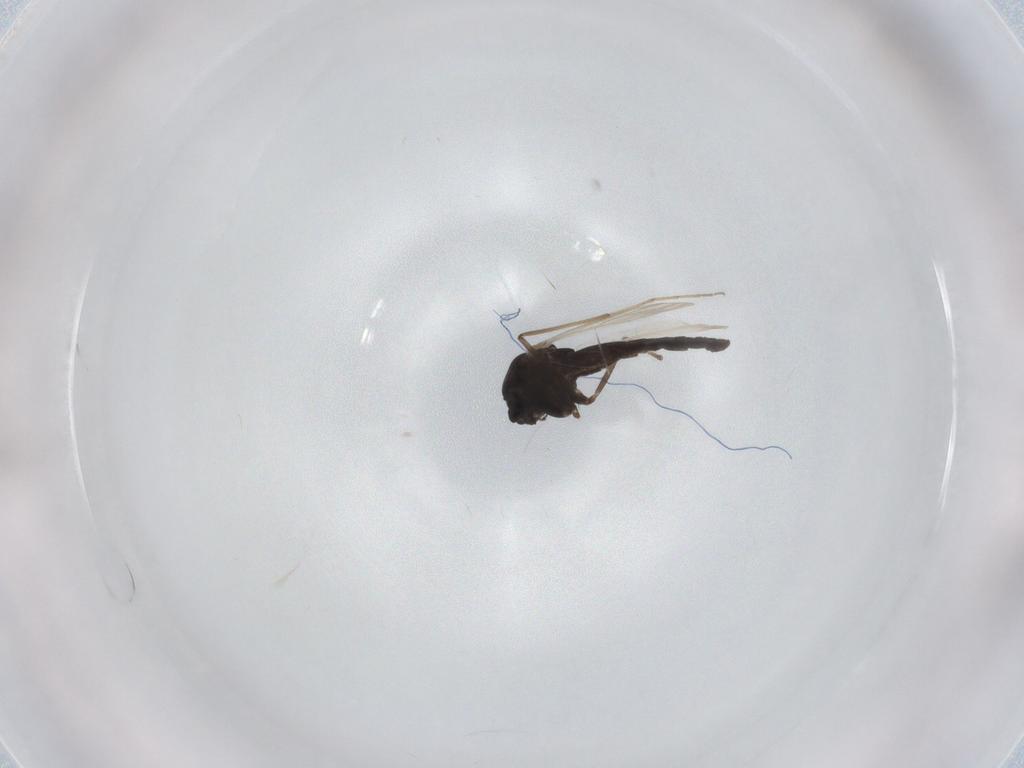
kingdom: Animalia
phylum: Arthropoda
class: Insecta
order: Diptera
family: Chironomidae
